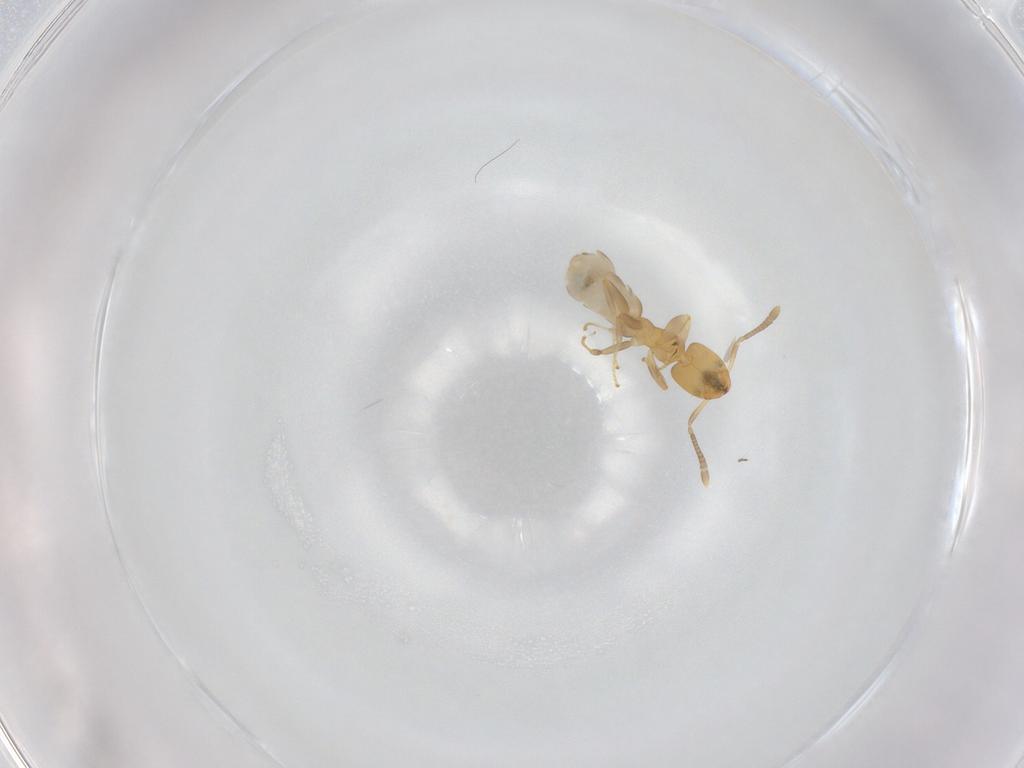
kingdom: Animalia
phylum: Arthropoda
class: Insecta
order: Hymenoptera
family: Formicidae
